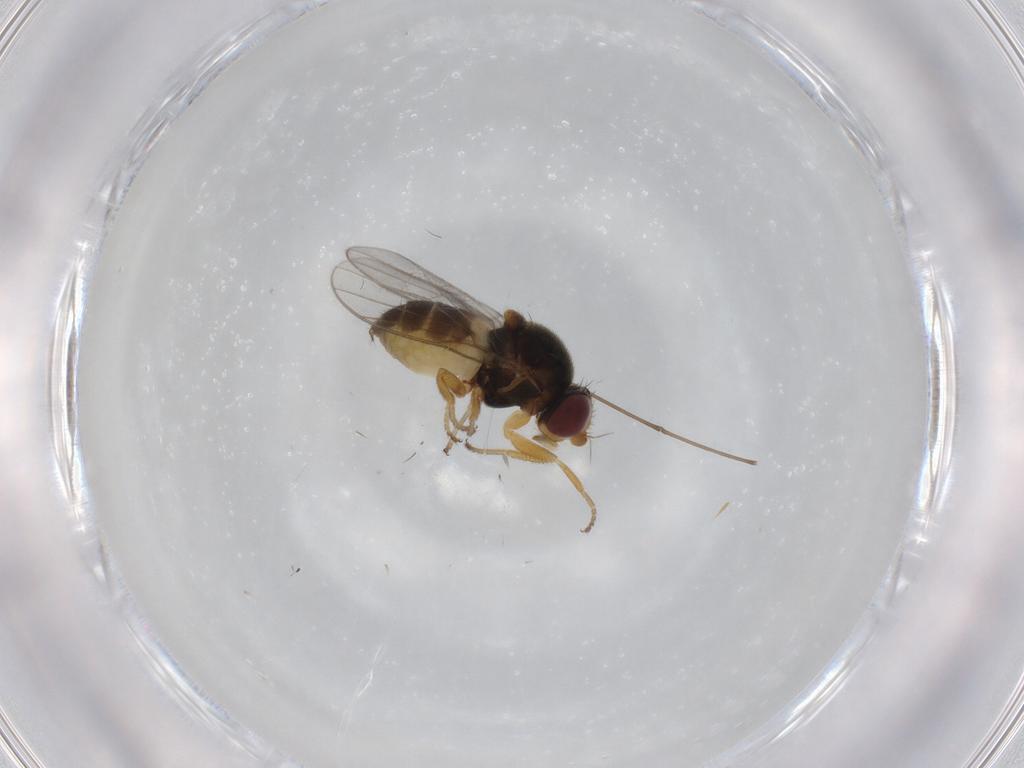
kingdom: Animalia
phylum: Arthropoda
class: Insecta
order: Diptera
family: Chloropidae
